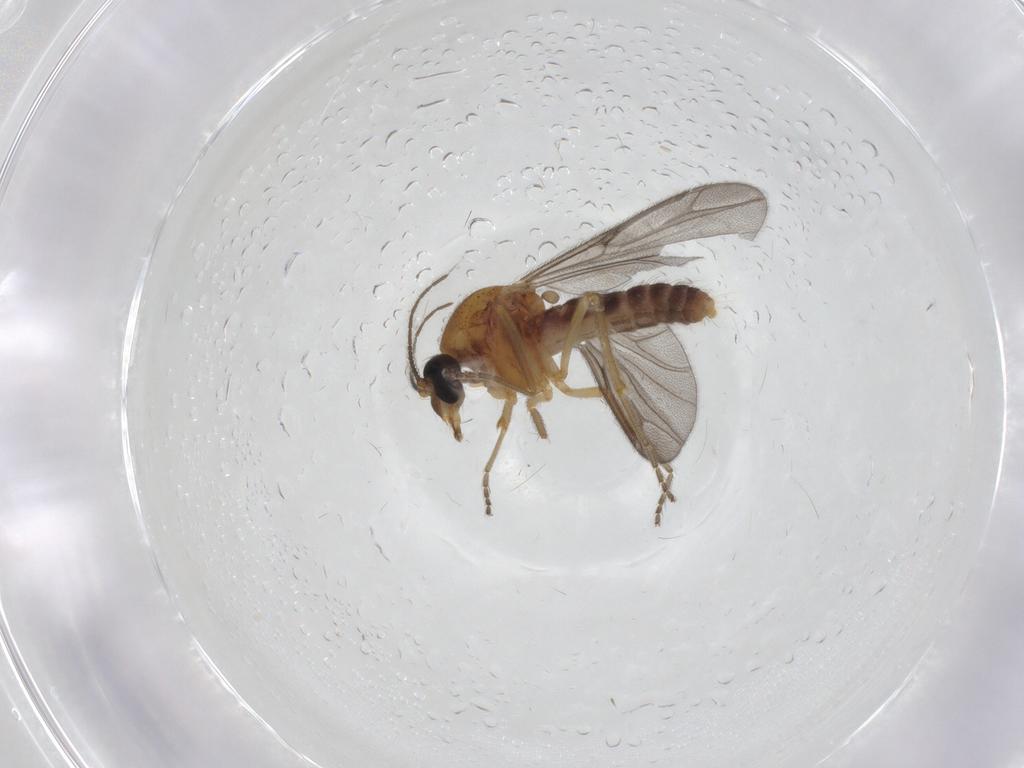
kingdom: Animalia
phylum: Arthropoda
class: Insecta
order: Diptera
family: Ceratopogonidae
